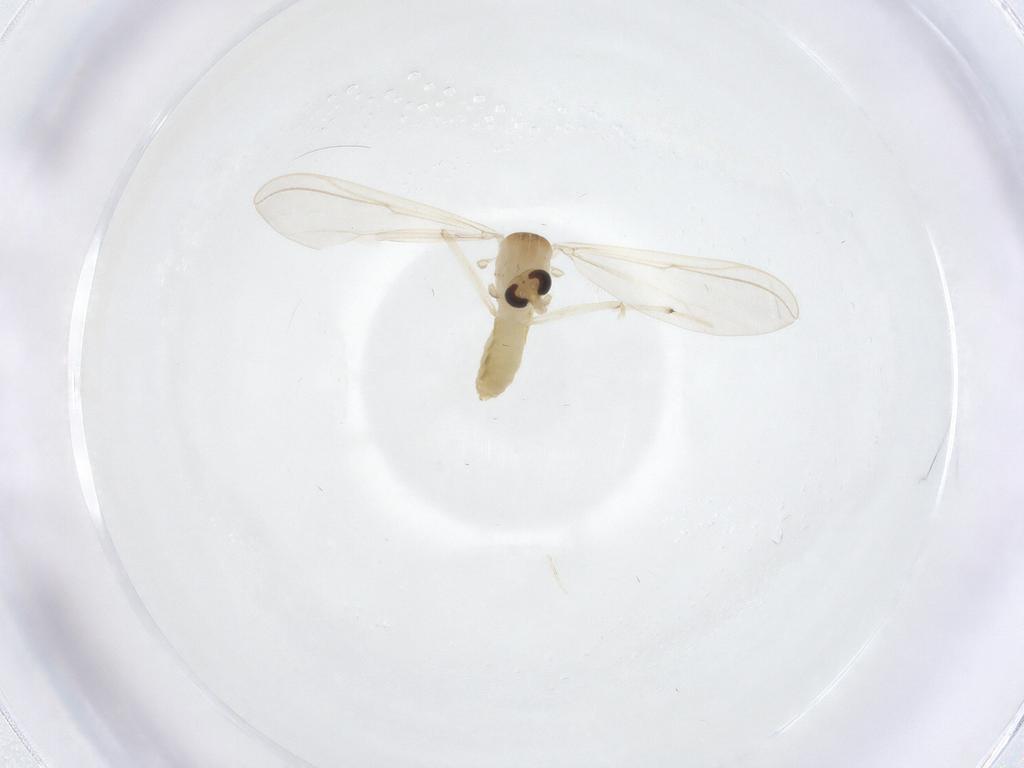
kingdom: Animalia
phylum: Arthropoda
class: Insecta
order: Diptera
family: Chironomidae
